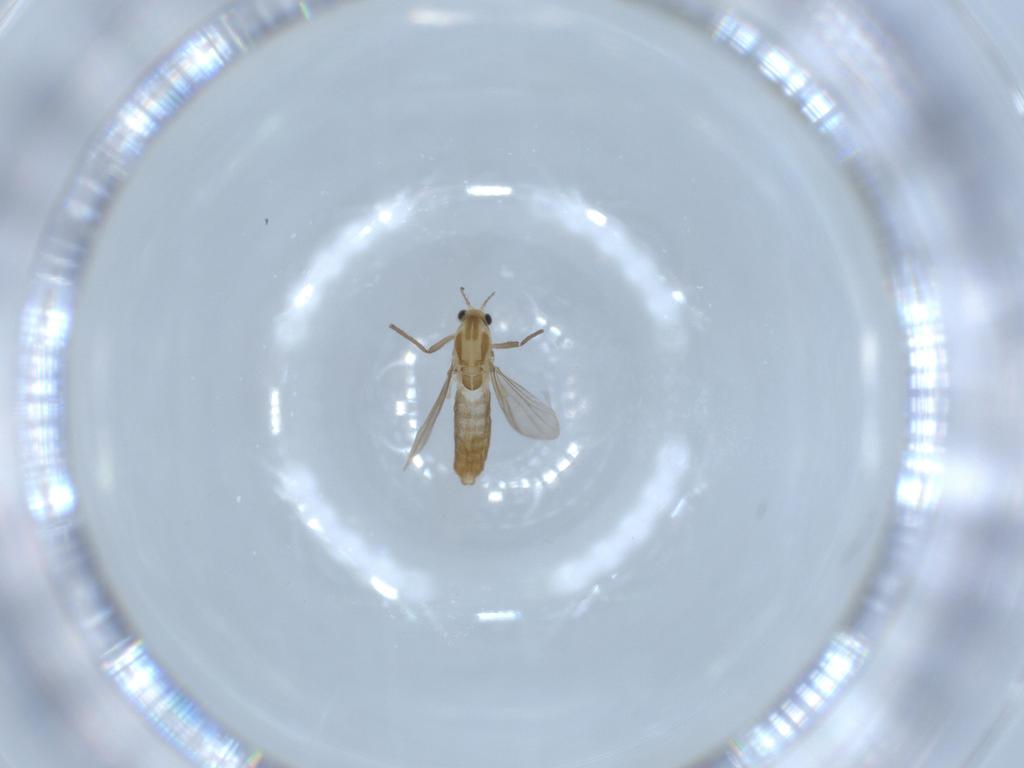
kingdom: Animalia
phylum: Arthropoda
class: Insecta
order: Diptera
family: Chironomidae
